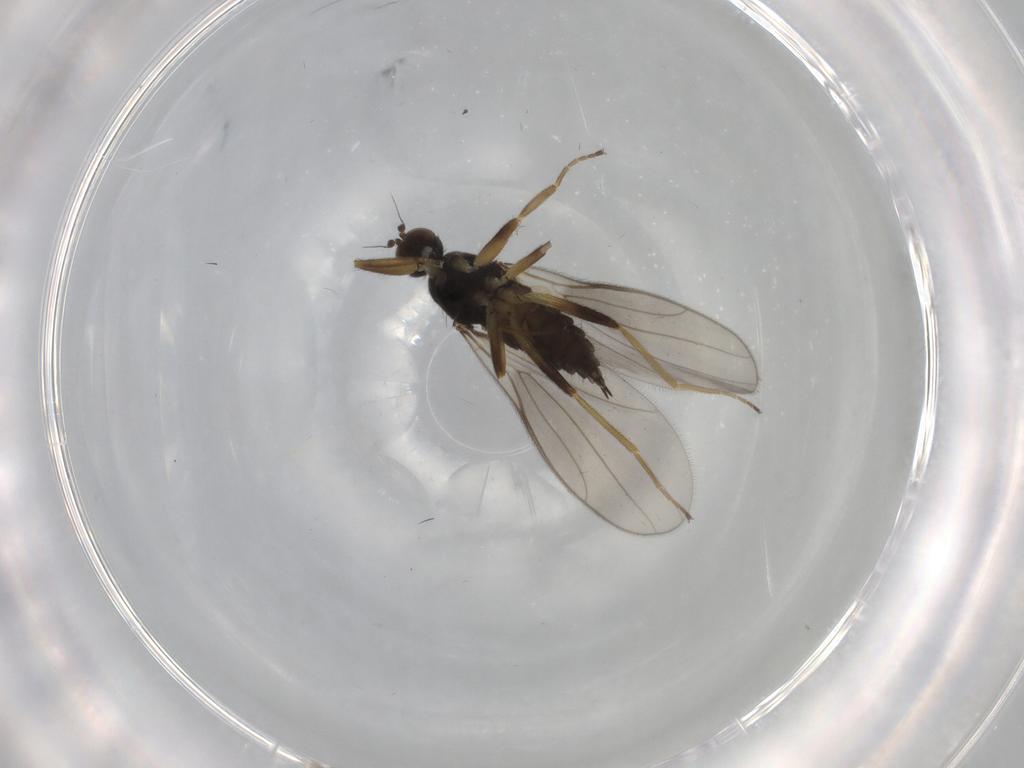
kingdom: Animalia
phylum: Arthropoda
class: Insecta
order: Diptera
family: Hybotidae
